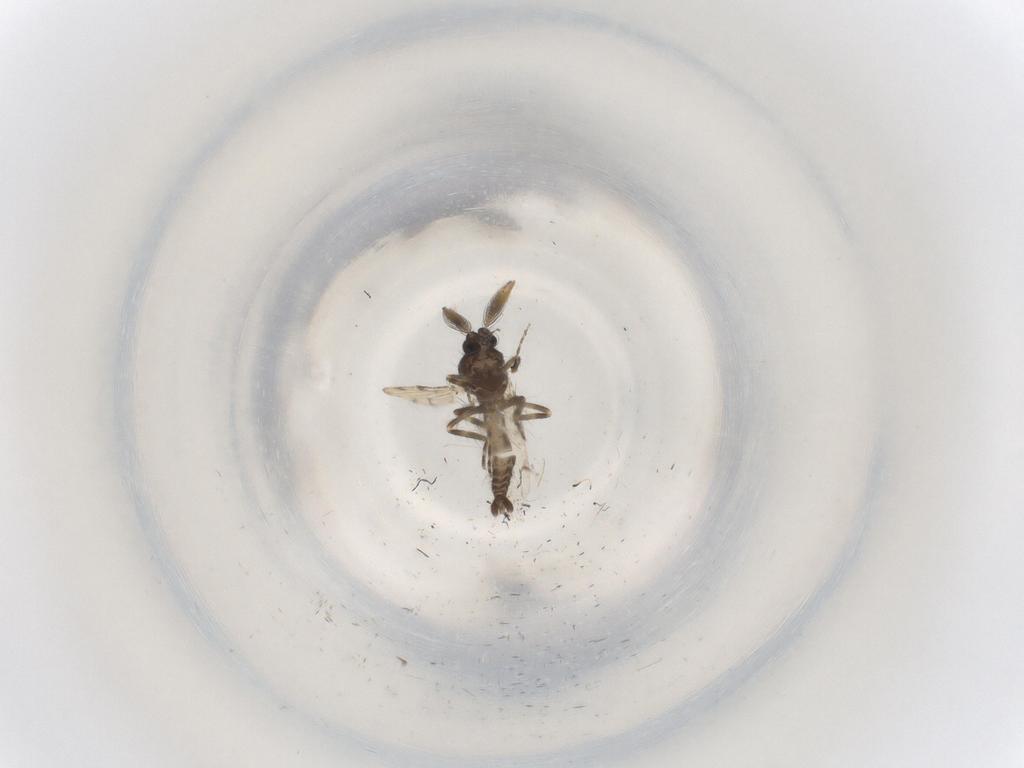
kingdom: Animalia
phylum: Arthropoda
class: Insecta
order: Diptera
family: Ceratopogonidae
